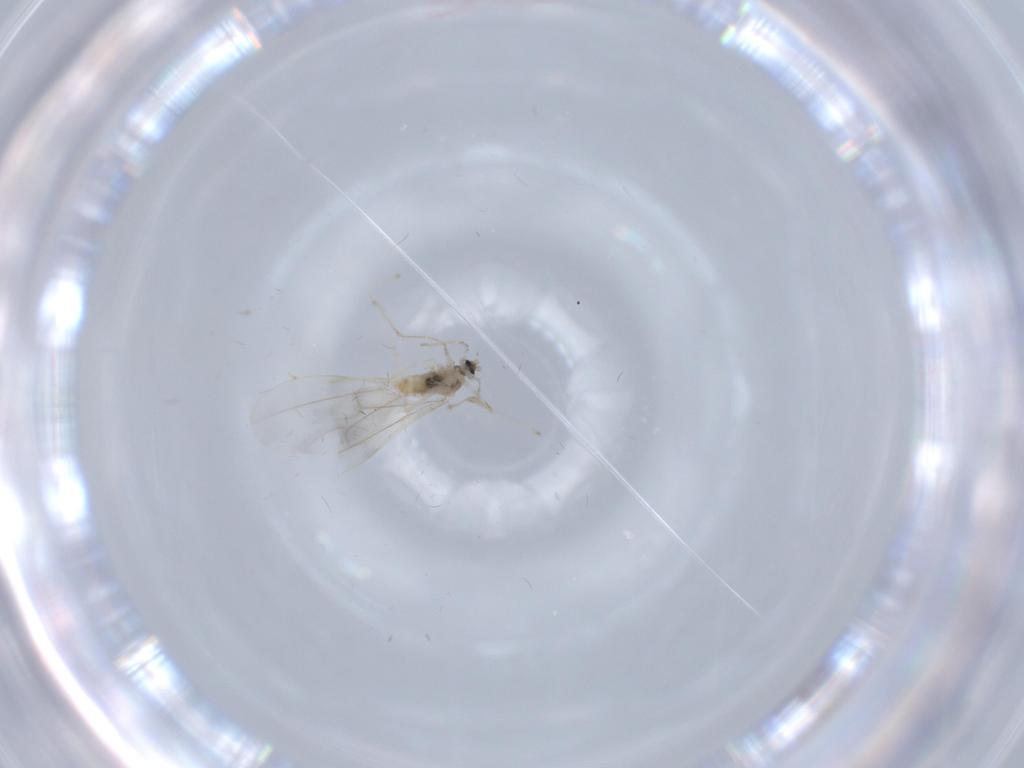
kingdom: Animalia
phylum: Arthropoda
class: Insecta
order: Diptera
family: Cecidomyiidae
